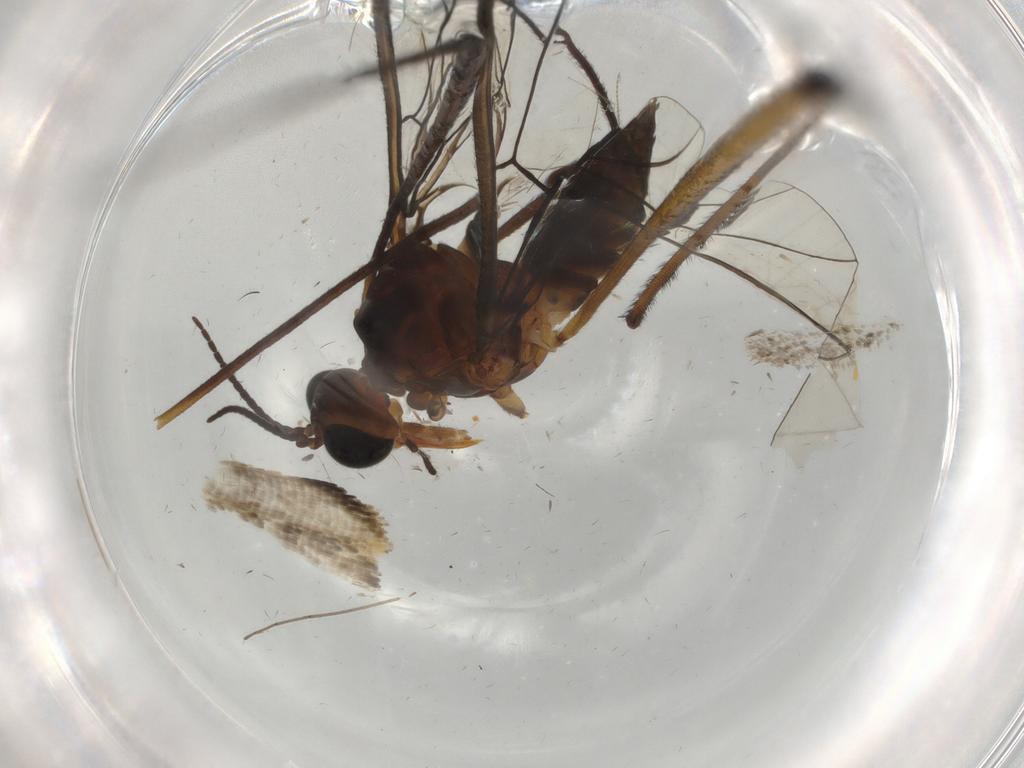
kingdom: Animalia
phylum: Arthropoda
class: Insecta
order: Diptera
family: Blephariceridae
